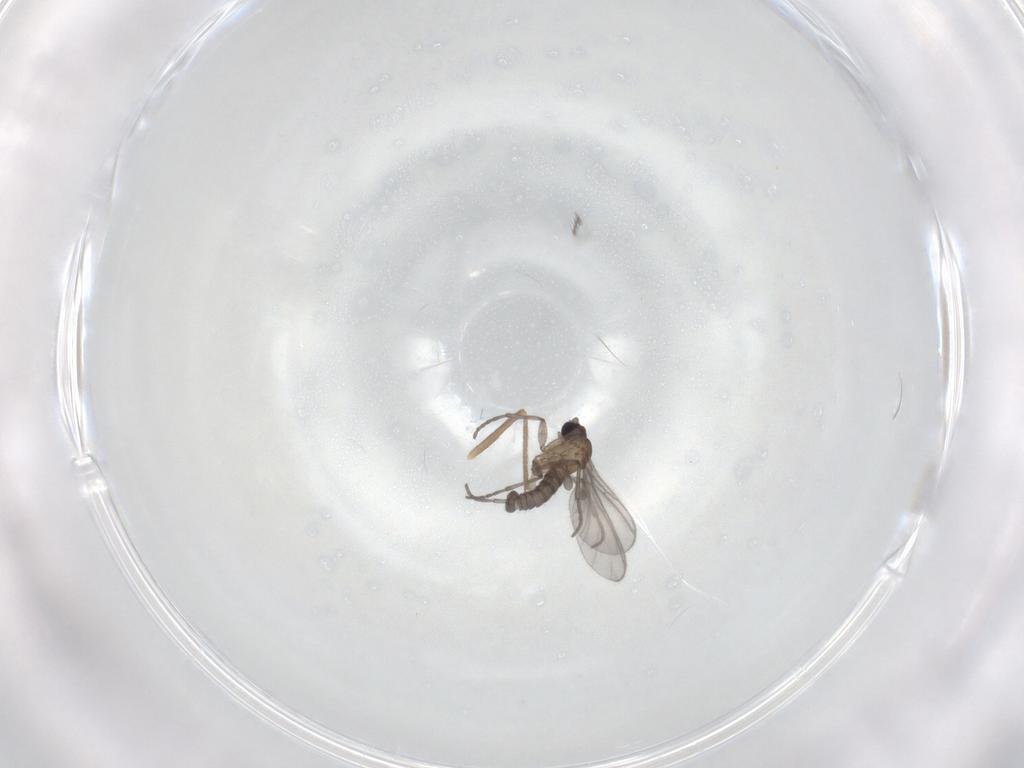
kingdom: Animalia
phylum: Arthropoda
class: Insecta
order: Diptera
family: Sciaridae
